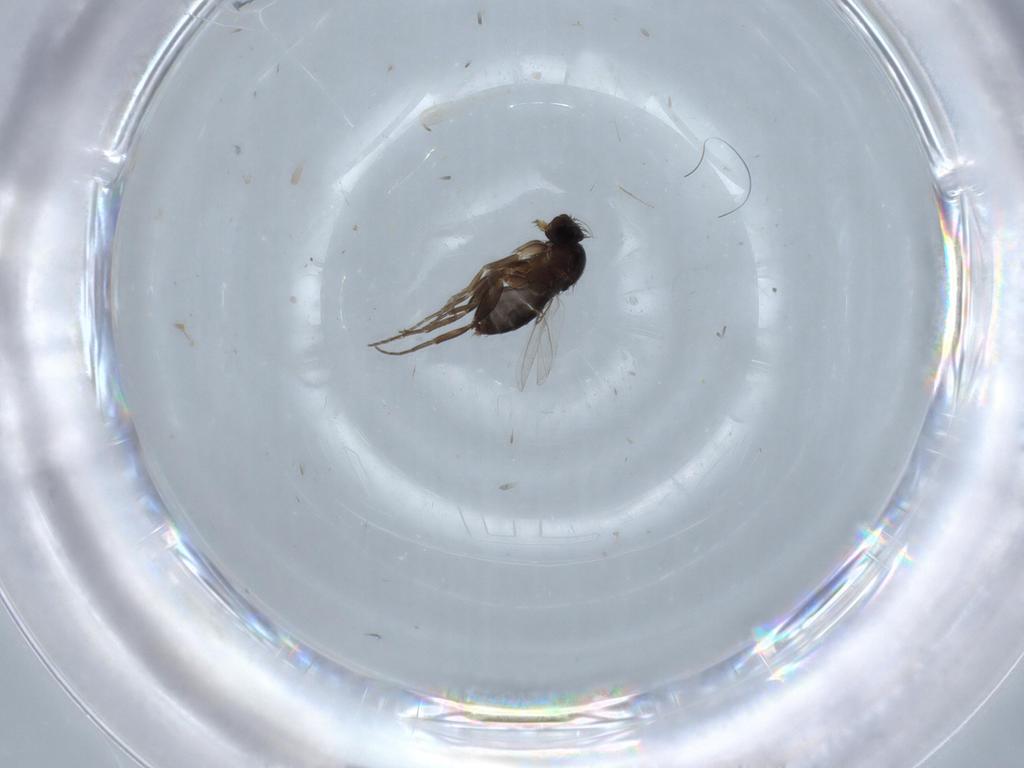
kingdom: Animalia
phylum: Arthropoda
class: Insecta
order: Diptera
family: Phoridae
